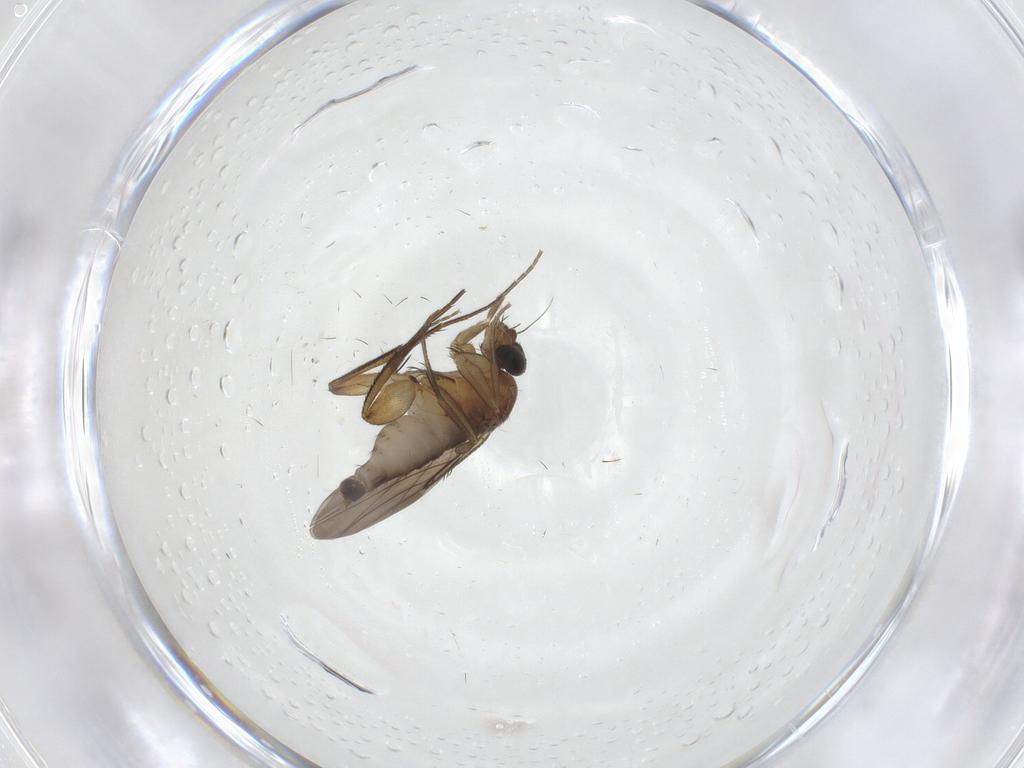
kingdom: Animalia
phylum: Arthropoda
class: Insecta
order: Diptera
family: Phoridae
